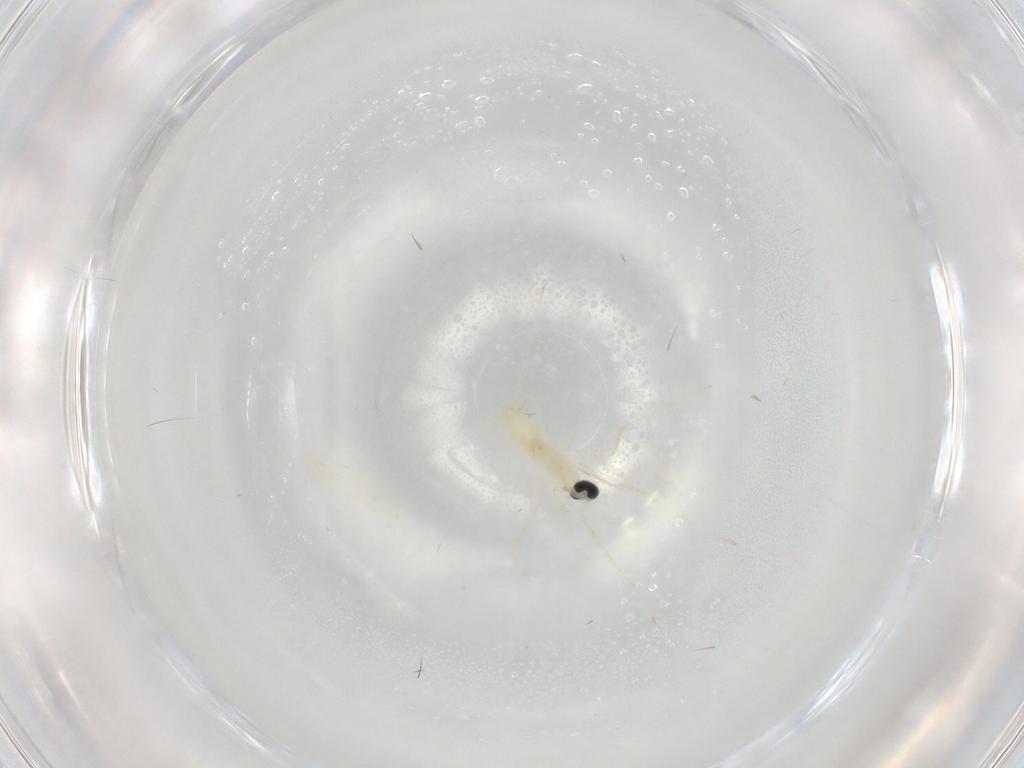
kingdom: Animalia
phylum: Arthropoda
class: Insecta
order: Diptera
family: Cecidomyiidae
